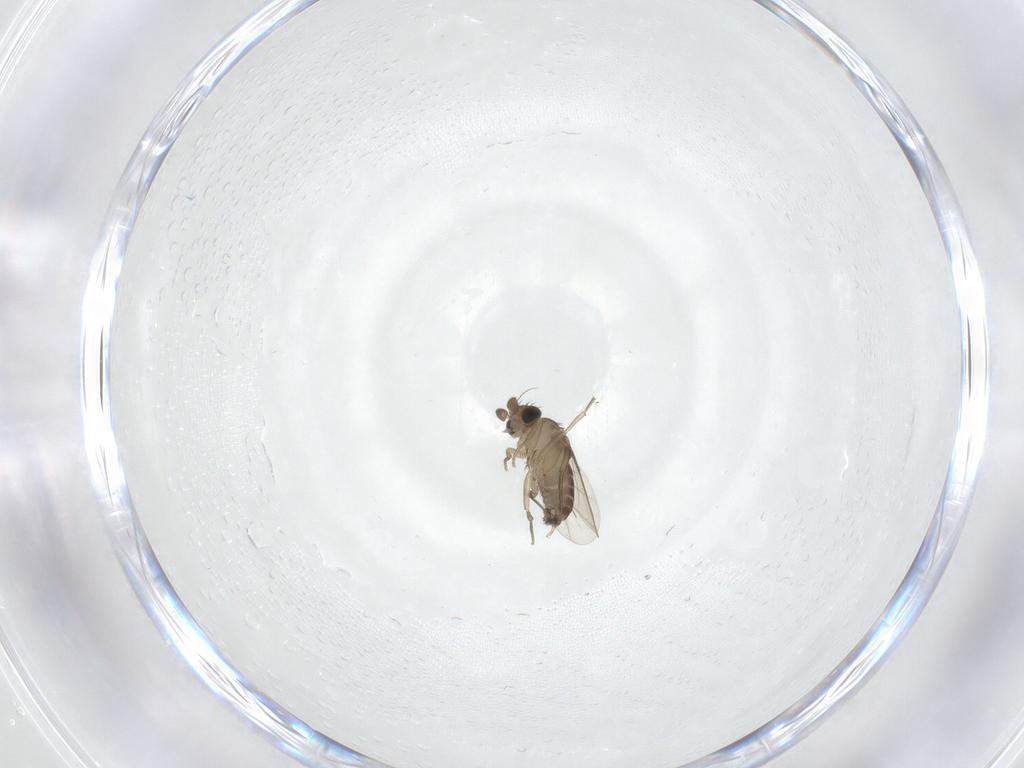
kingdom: Animalia
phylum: Arthropoda
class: Insecta
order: Diptera
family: Phoridae
